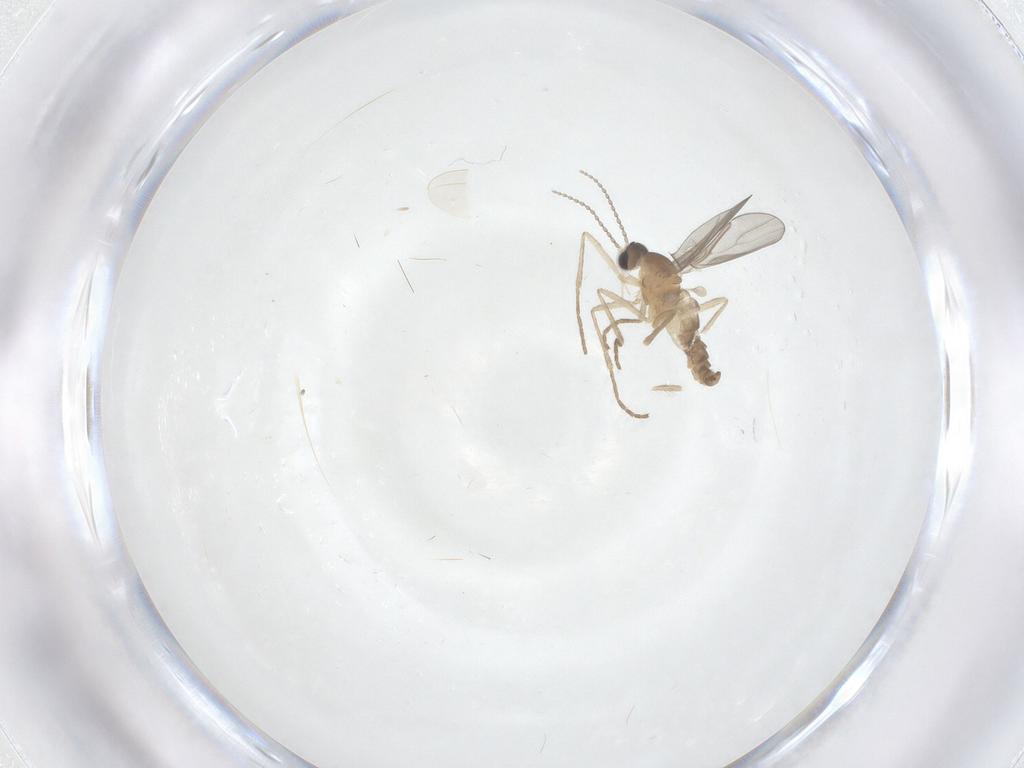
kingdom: Animalia
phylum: Arthropoda
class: Insecta
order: Diptera
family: Cecidomyiidae
